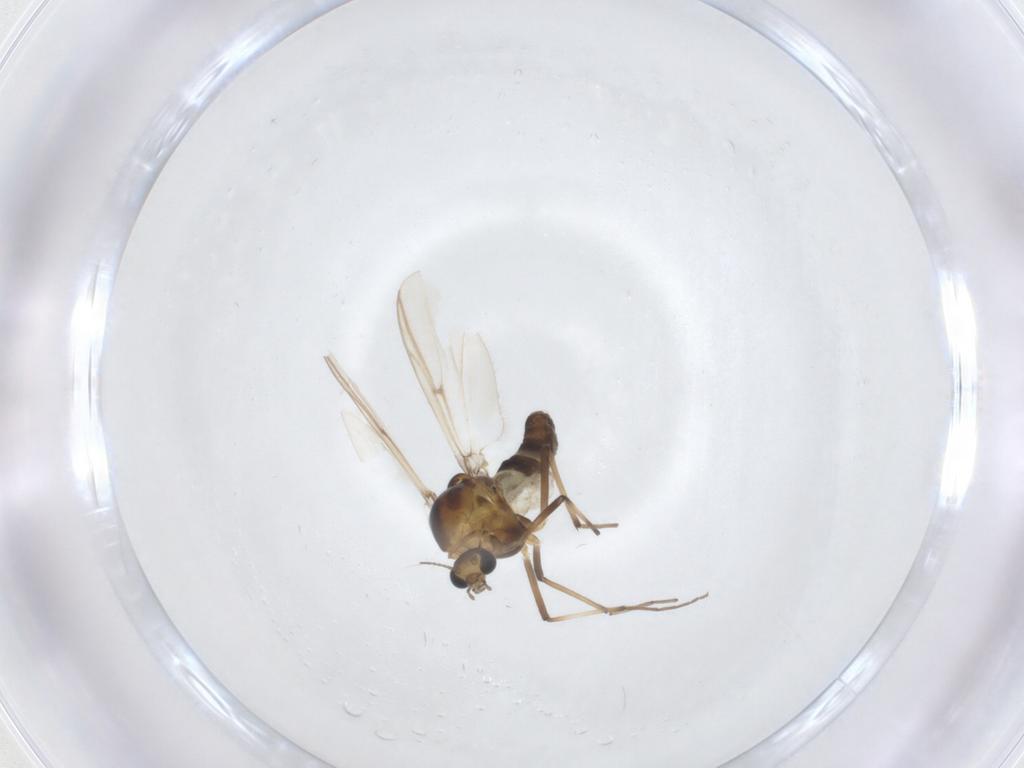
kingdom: Animalia
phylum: Arthropoda
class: Insecta
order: Diptera
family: Chironomidae
